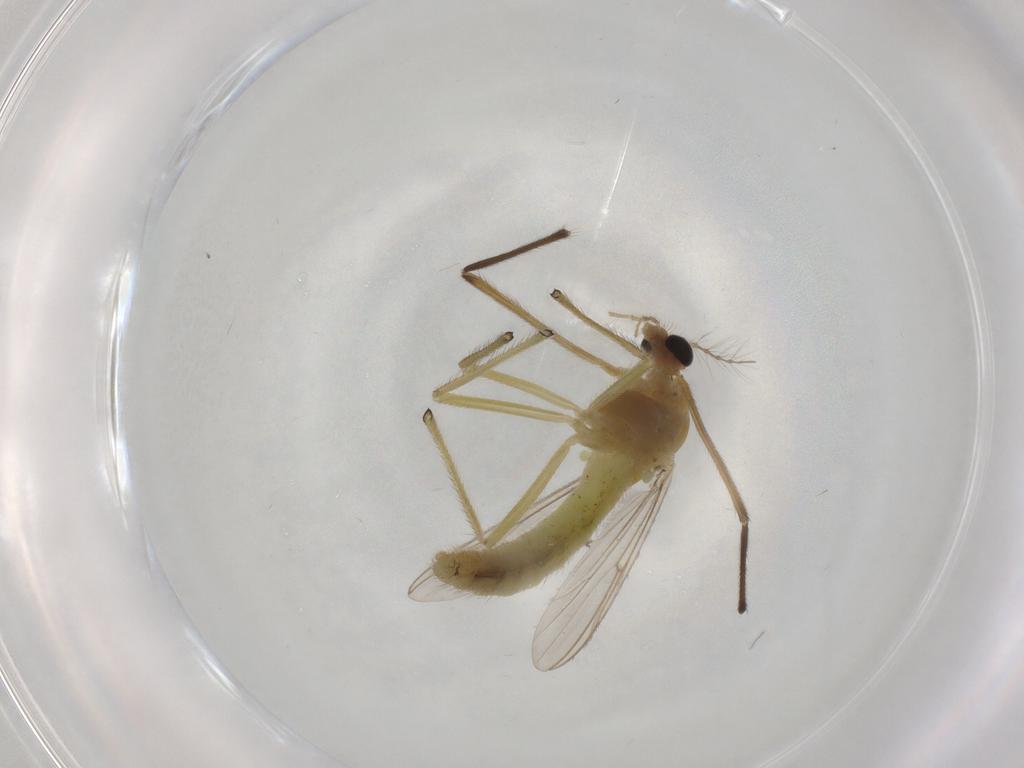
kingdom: Animalia
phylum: Arthropoda
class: Insecta
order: Diptera
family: Chironomidae
